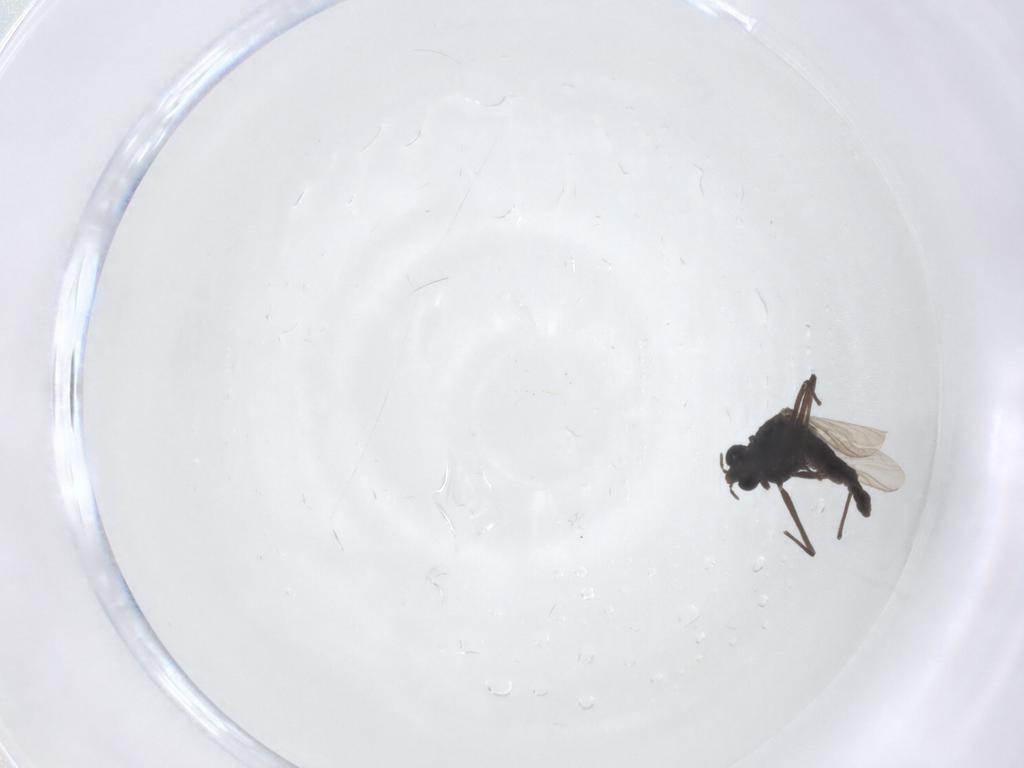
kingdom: Animalia
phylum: Arthropoda
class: Insecta
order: Diptera
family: Chironomidae
